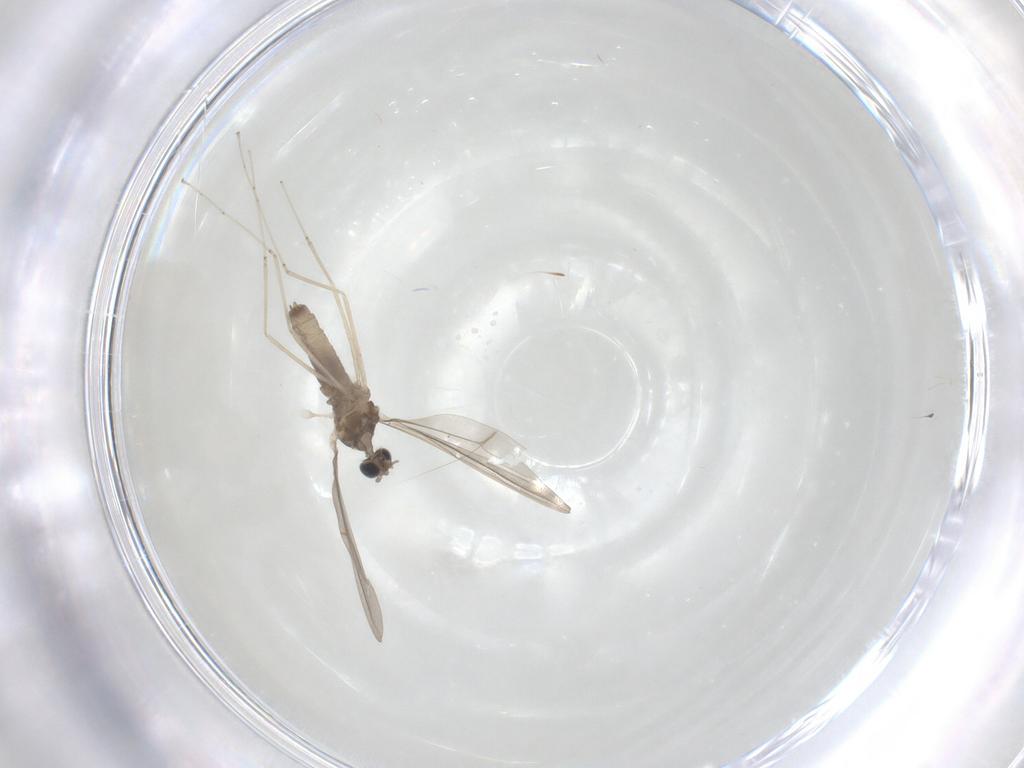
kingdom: Animalia
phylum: Arthropoda
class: Insecta
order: Diptera
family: Cecidomyiidae
